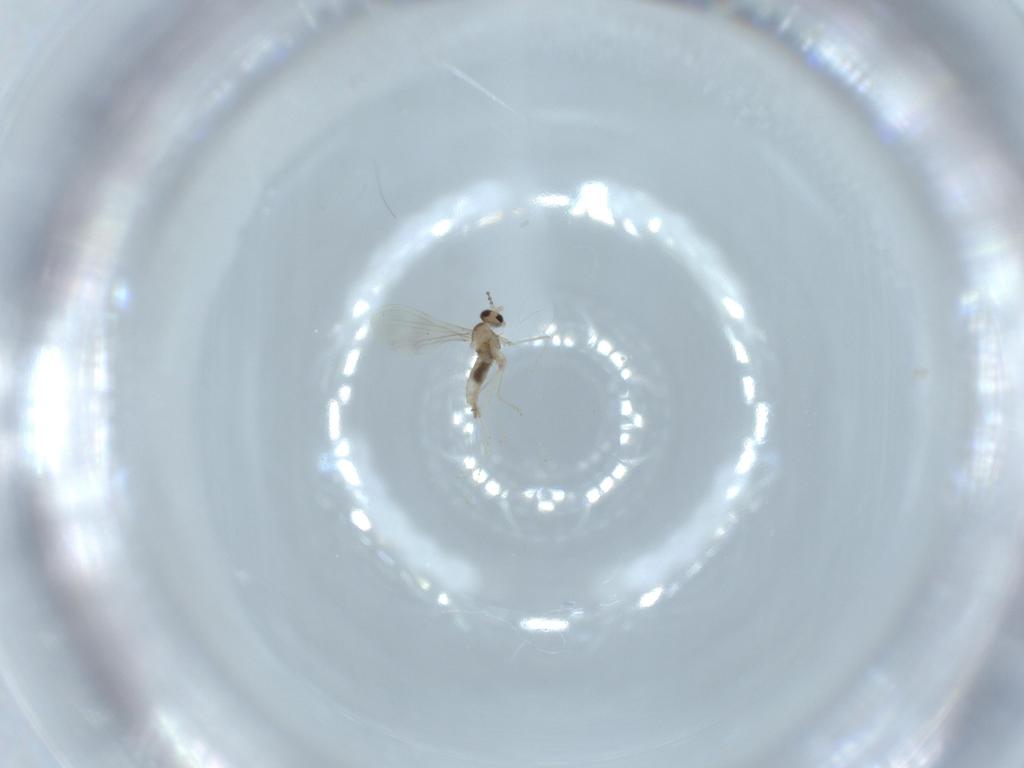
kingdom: Animalia
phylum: Arthropoda
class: Insecta
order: Diptera
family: Cecidomyiidae
